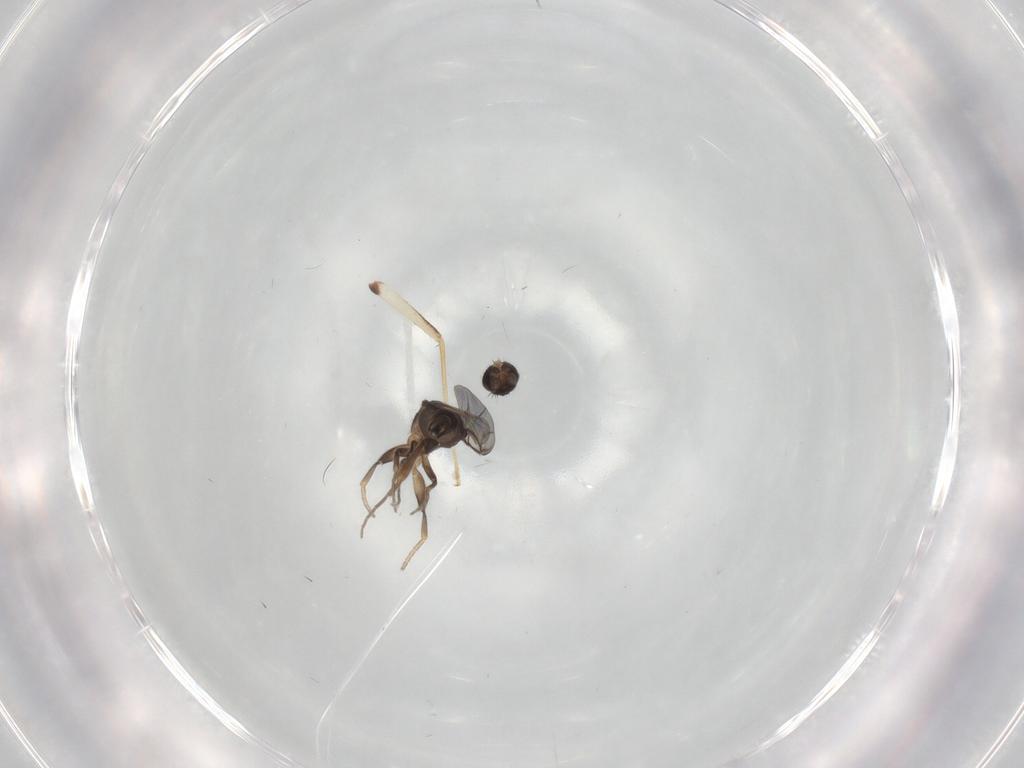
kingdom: Animalia
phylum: Arthropoda
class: Insecta
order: Diptera
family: Phoridae
